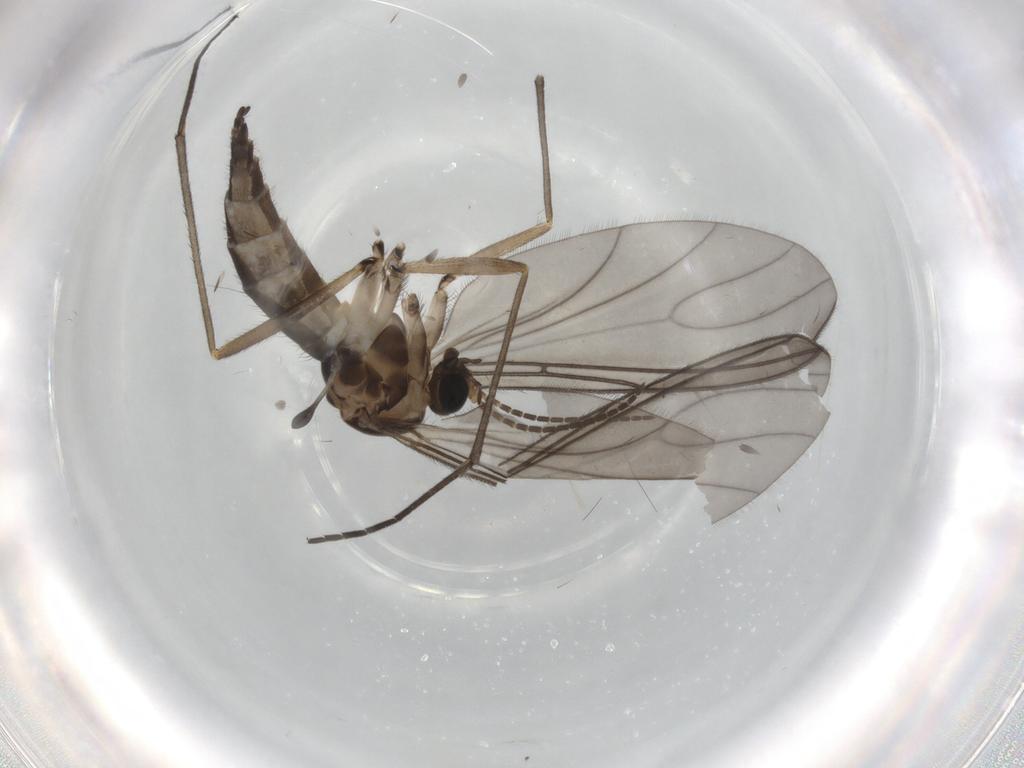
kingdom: Animalia
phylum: Arthropoda
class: Insecta
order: Diptera
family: Sciaridae
